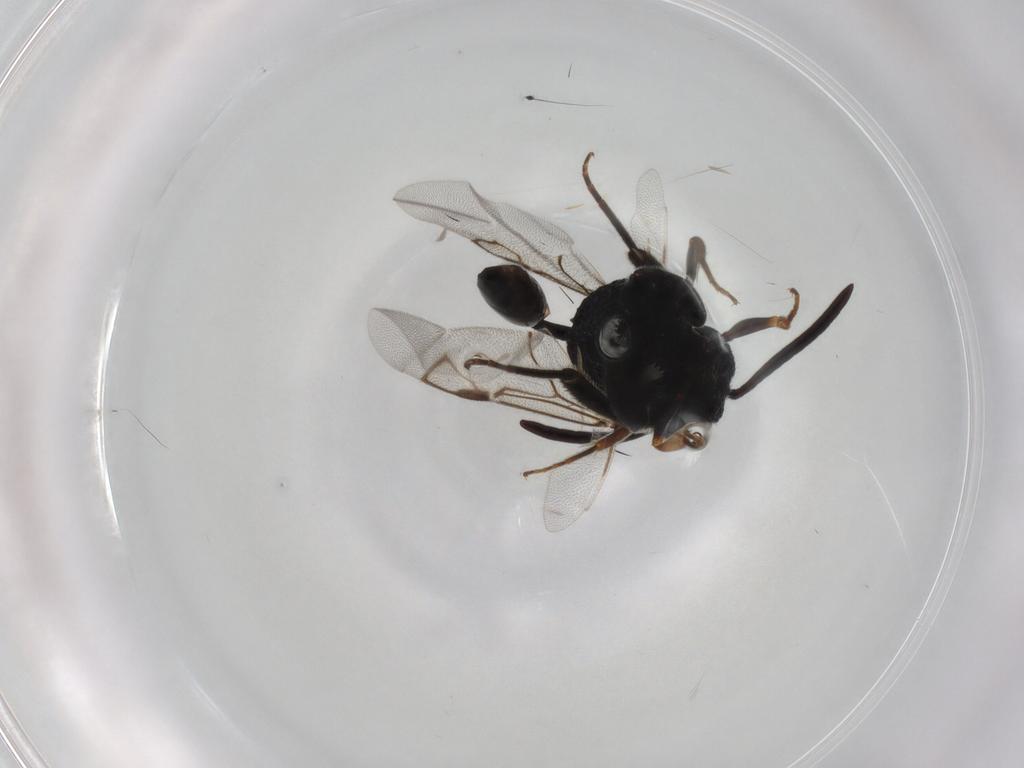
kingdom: Animalia
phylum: Arthropoda
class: Insecta
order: Hymenoptera
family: Evaniidae
